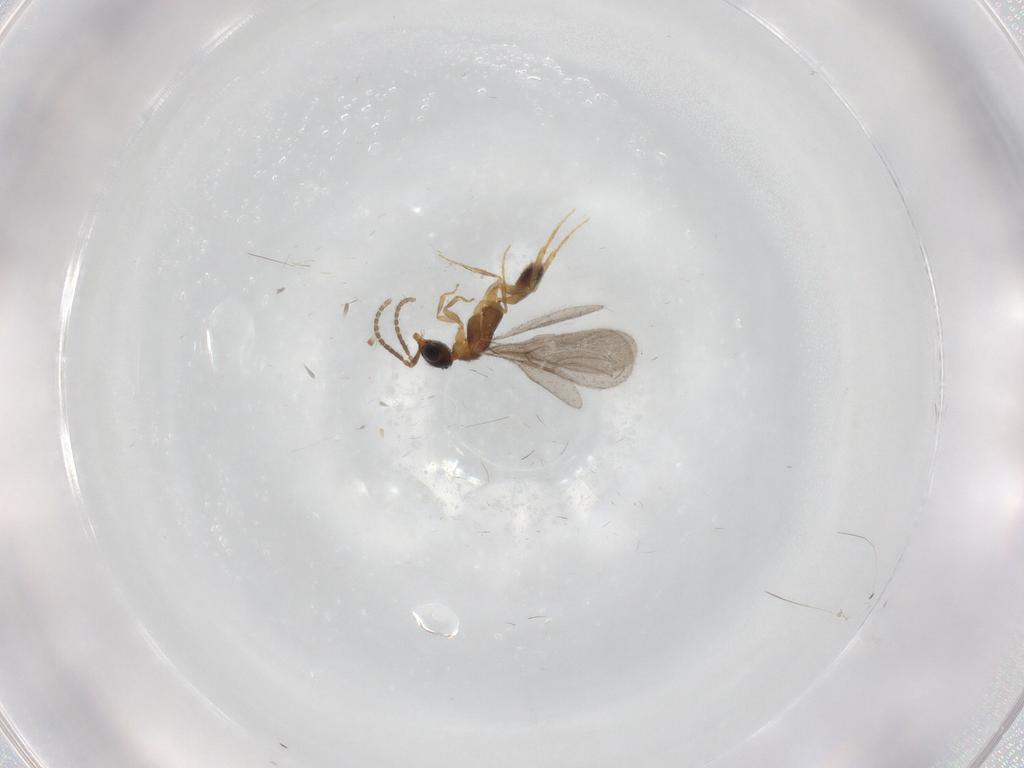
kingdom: Animalia
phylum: Arthropoda
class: Insecta
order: Hymenoptera
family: Bethylidae
